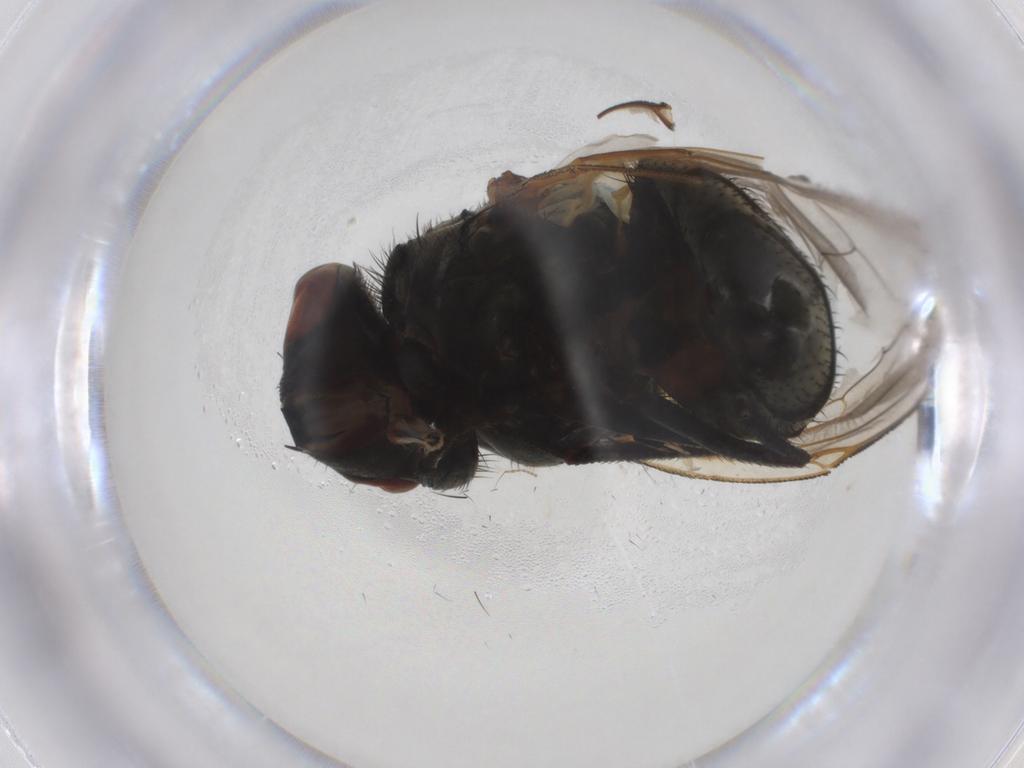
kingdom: Animalia
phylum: Arthropoda
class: Insecta
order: Diptera
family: Muscidae
